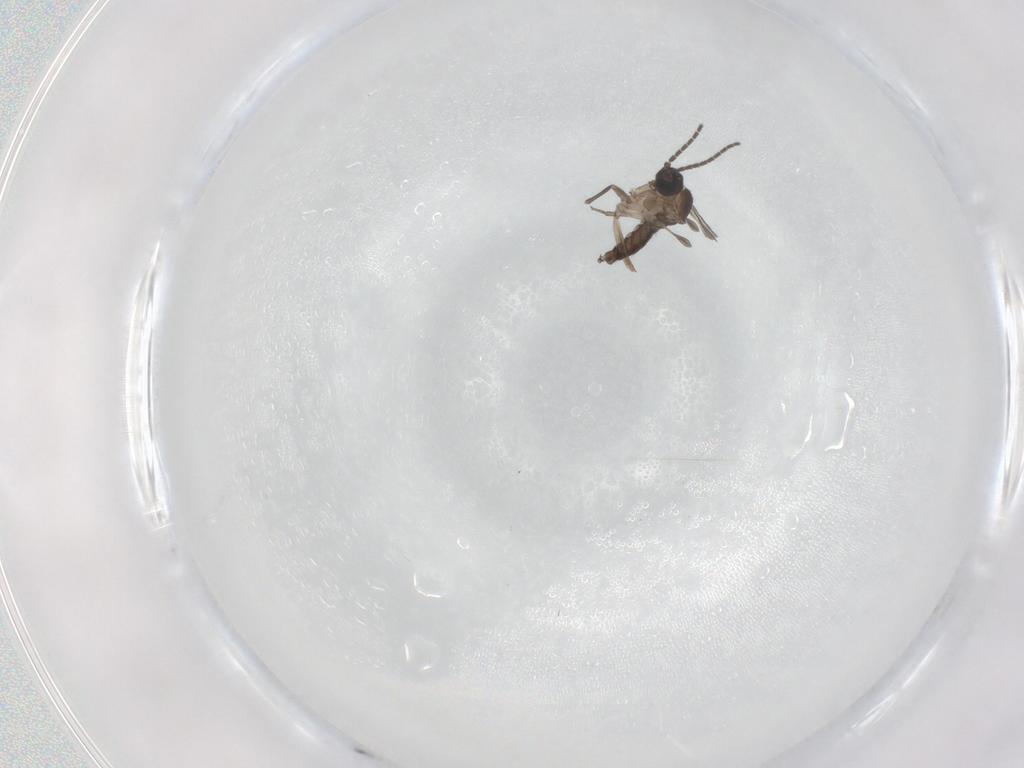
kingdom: Animalia
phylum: Arthropoda
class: Insecta
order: Diptera
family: Sciaridae
